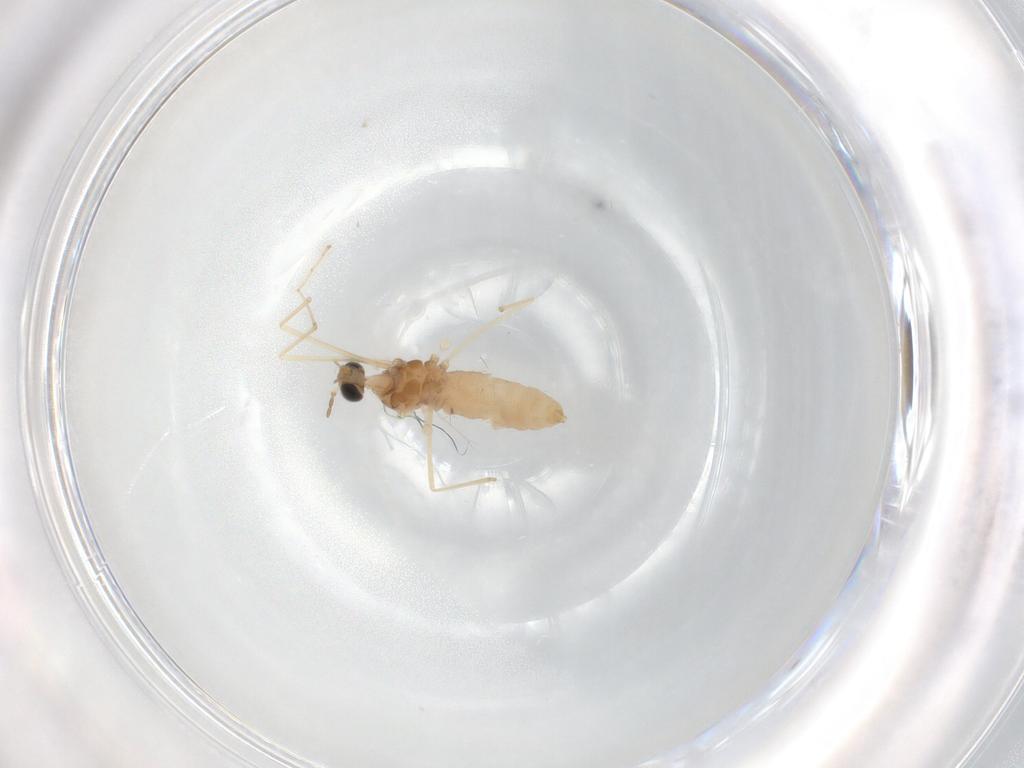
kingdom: Animalia
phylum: Arthropoda
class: Insecta
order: Diptera
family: Cecidomyiidae
